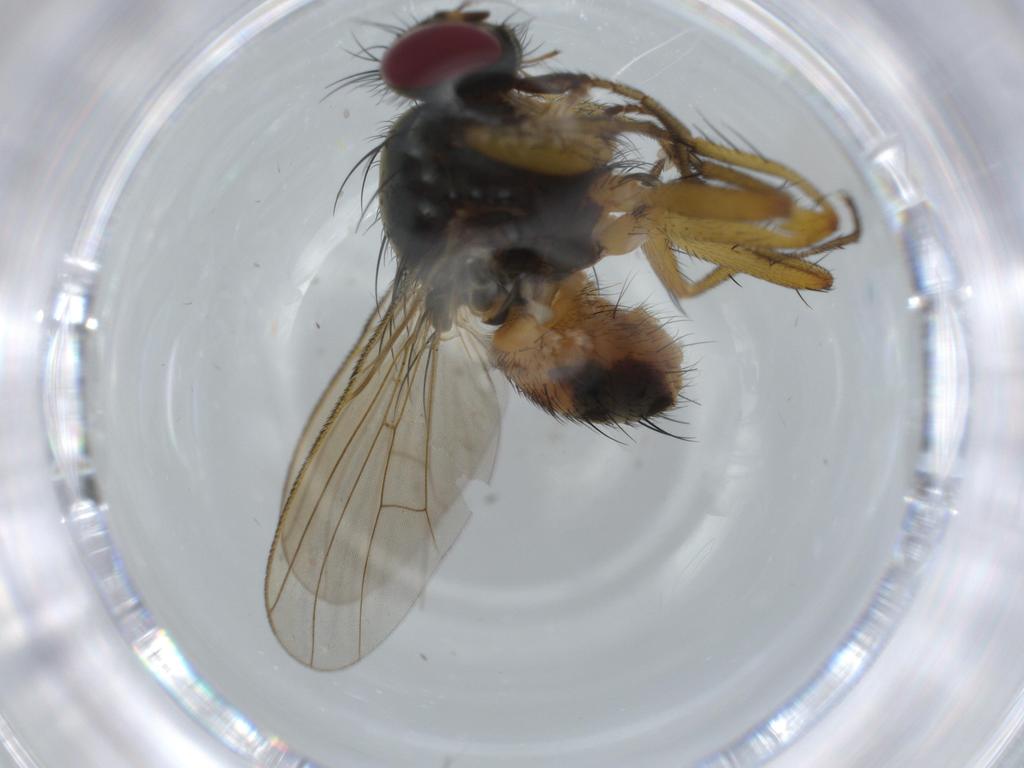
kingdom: Animalia
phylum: Arthropoda
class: Insecta
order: Diptera
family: Muscidae
